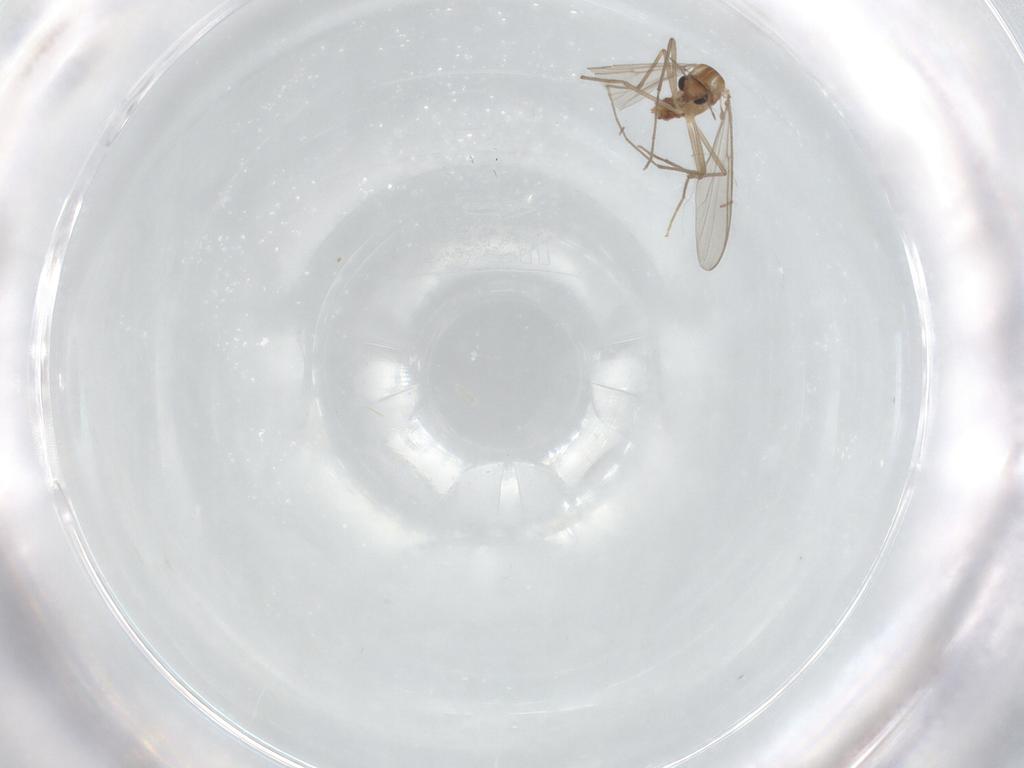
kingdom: Animalia
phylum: Arthropoda
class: Insecta
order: Diptera
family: Chironomidae
